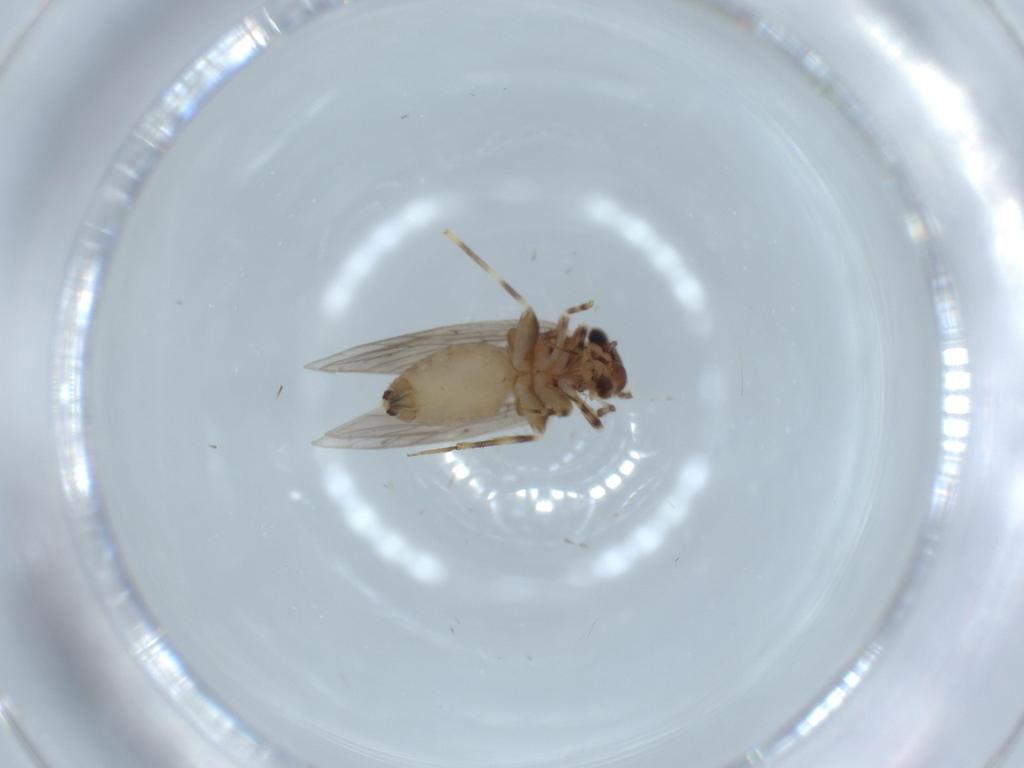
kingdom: Animalia
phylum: Arthropoda
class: Insecta
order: Psocodea
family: Lepidopsocidae
